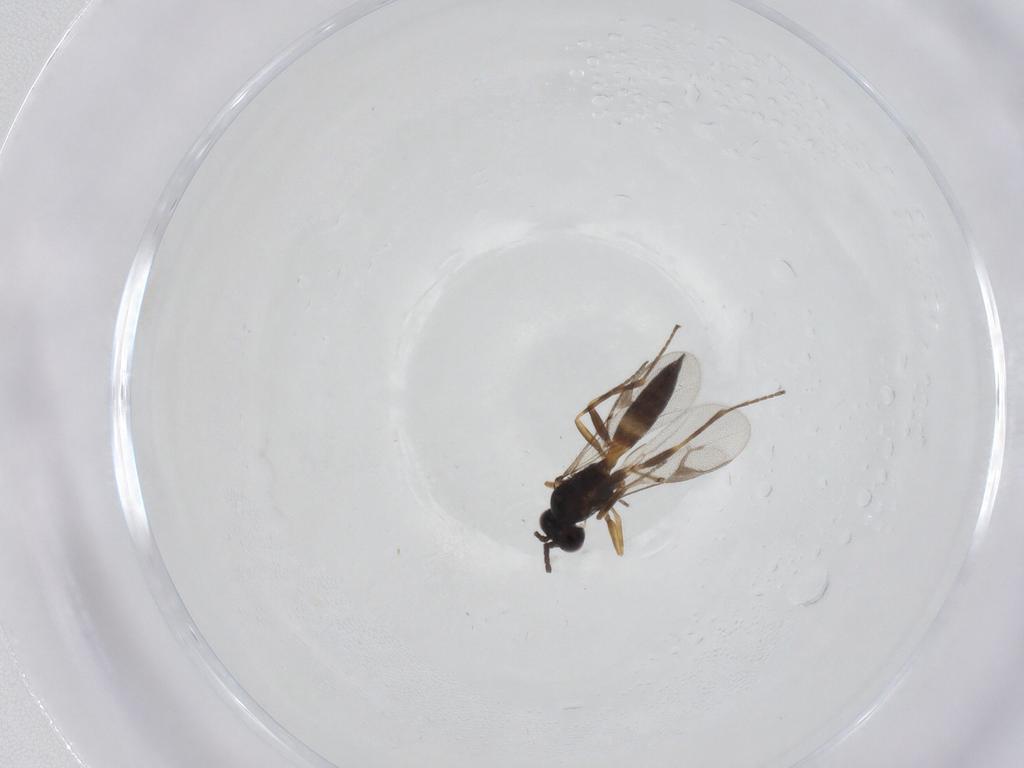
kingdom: Animalia
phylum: Arthropoda
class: Insecta
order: Hymenoptera
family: Braconidae
